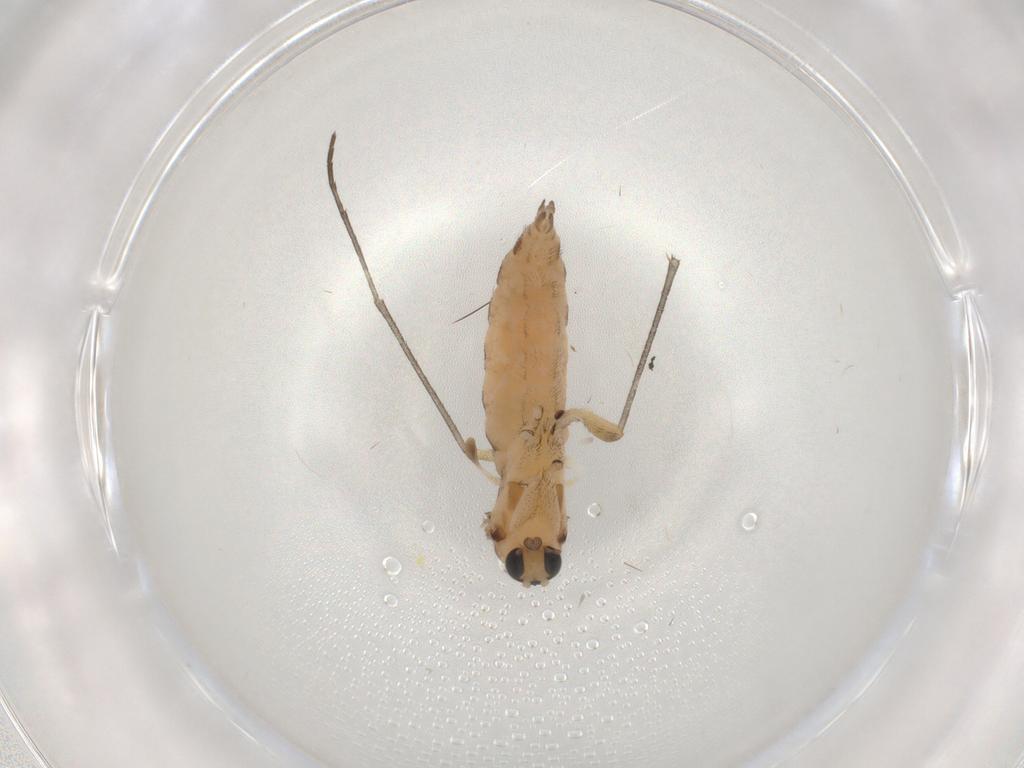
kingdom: Animalia
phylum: Arthropoda
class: Insecta
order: Diptera
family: Sciaridae
